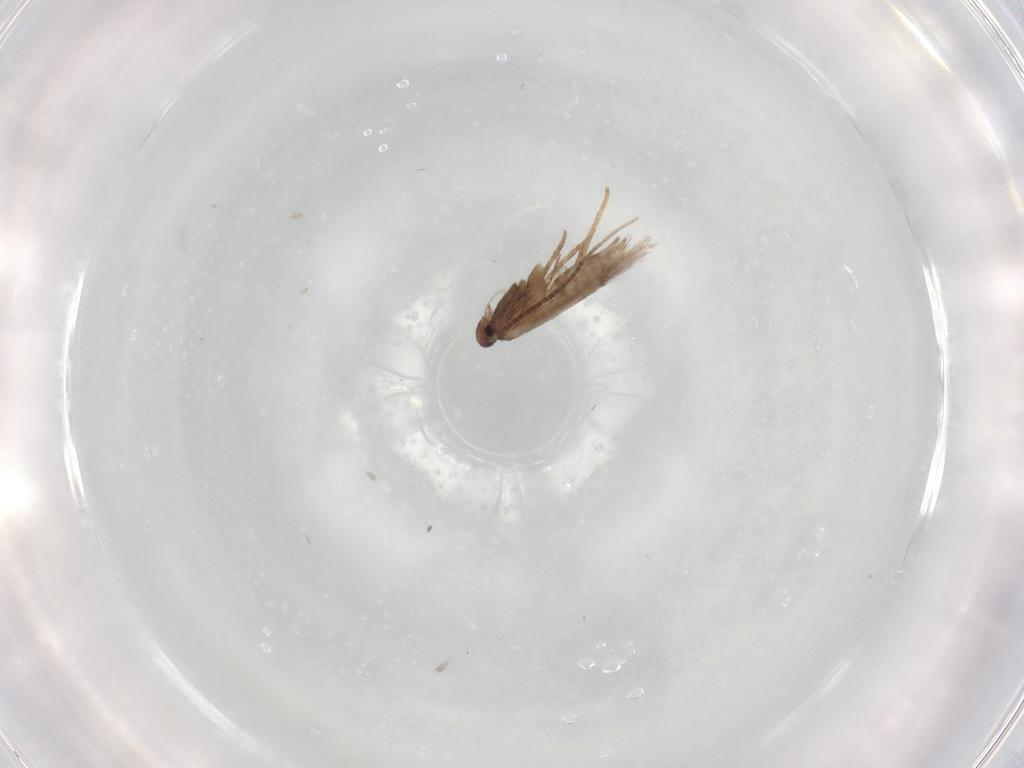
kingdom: Animalia
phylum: Arthropoda
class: Insecta
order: Lepidoptera
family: Gracillariidae
